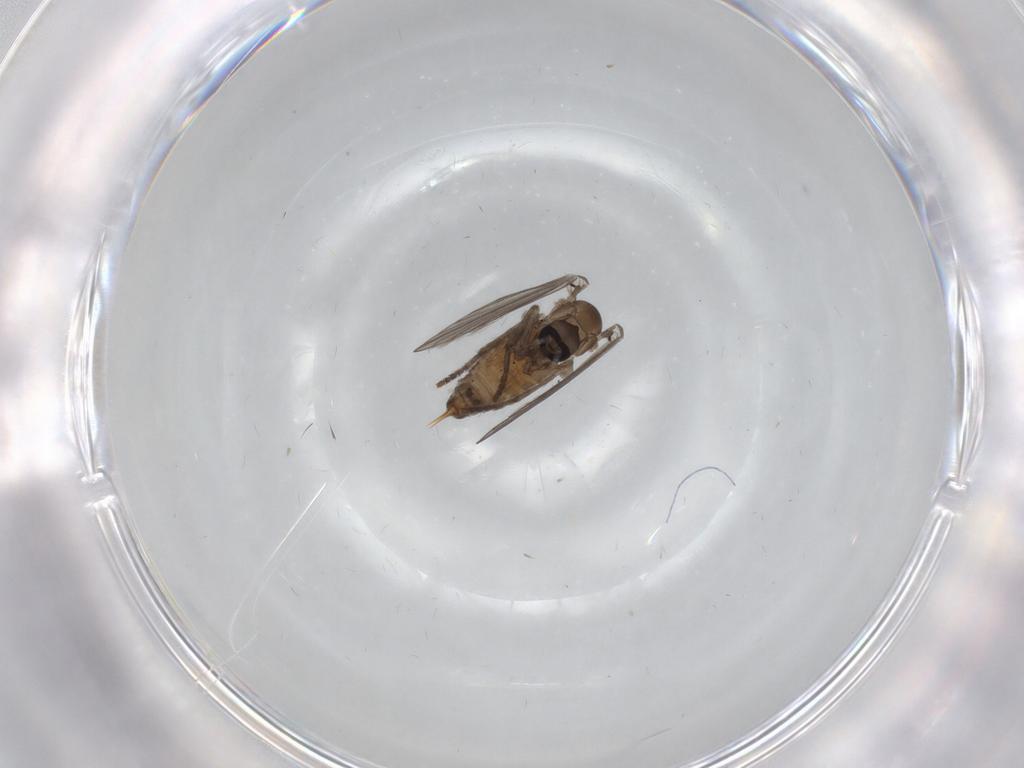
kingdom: Animalia
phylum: Arthropoda
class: Insecta
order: Diptera
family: Psychodidae
